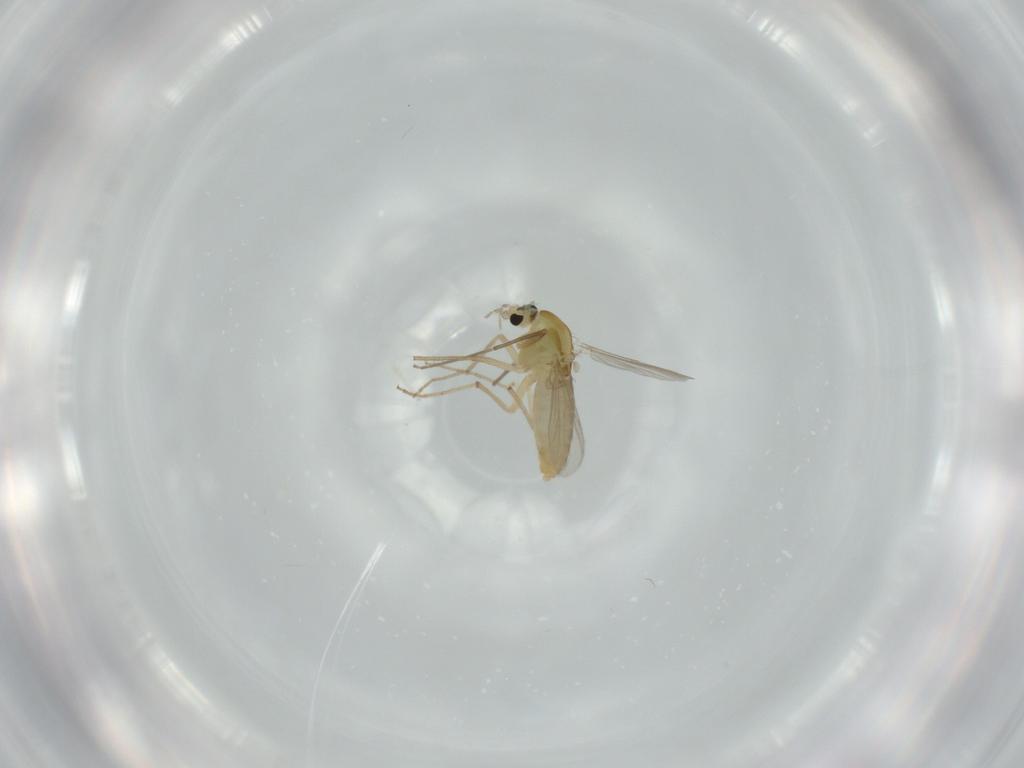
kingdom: Animalia
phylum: Arthropoda
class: Insecta
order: Diptera
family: Chironomidae
